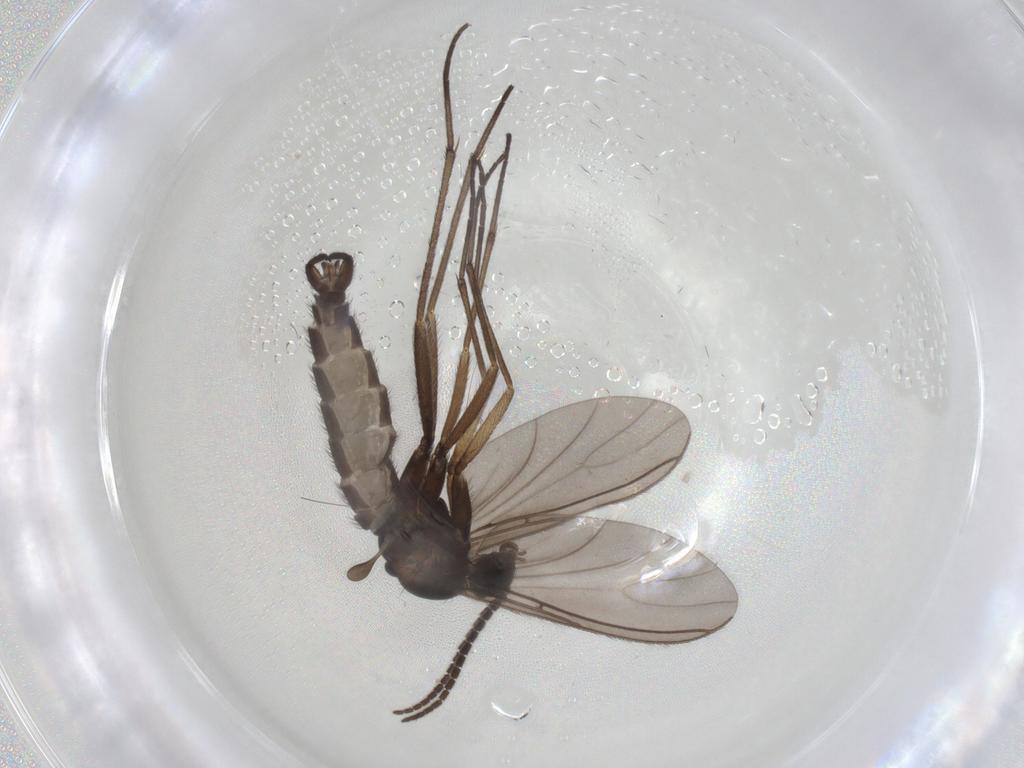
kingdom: Animalia
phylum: Arthropoda
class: Insecta
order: Diptera
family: Sciaridae
